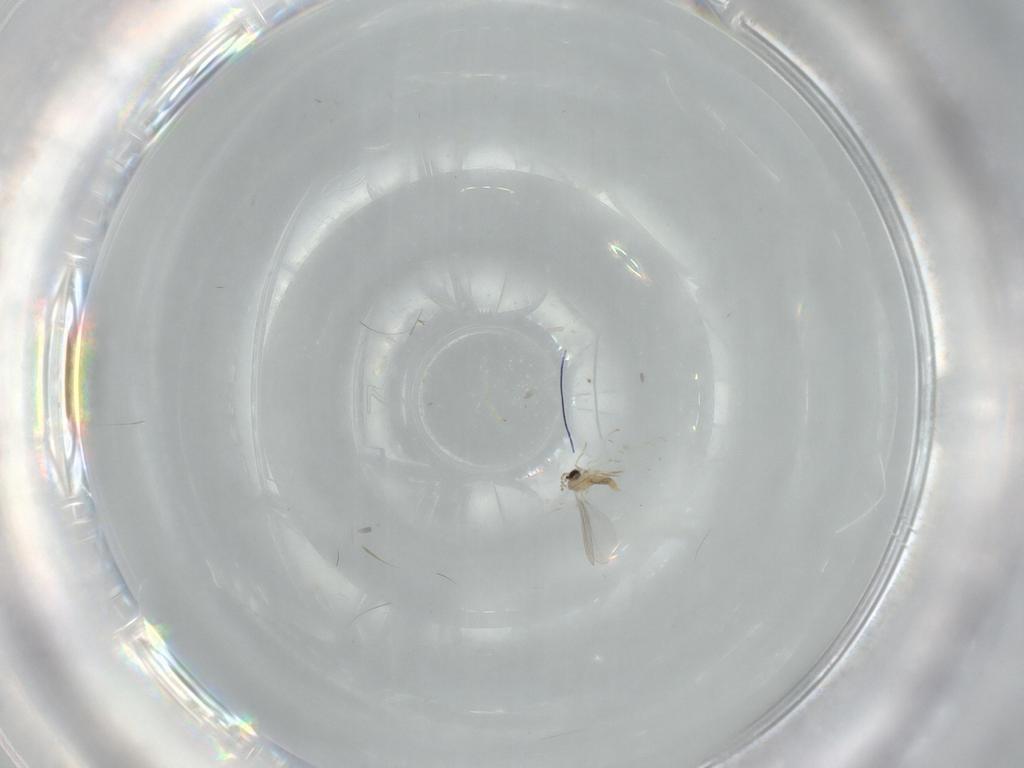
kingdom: Animalia
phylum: Arthropoda
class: Insecta
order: Diptera
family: Psychodidae
